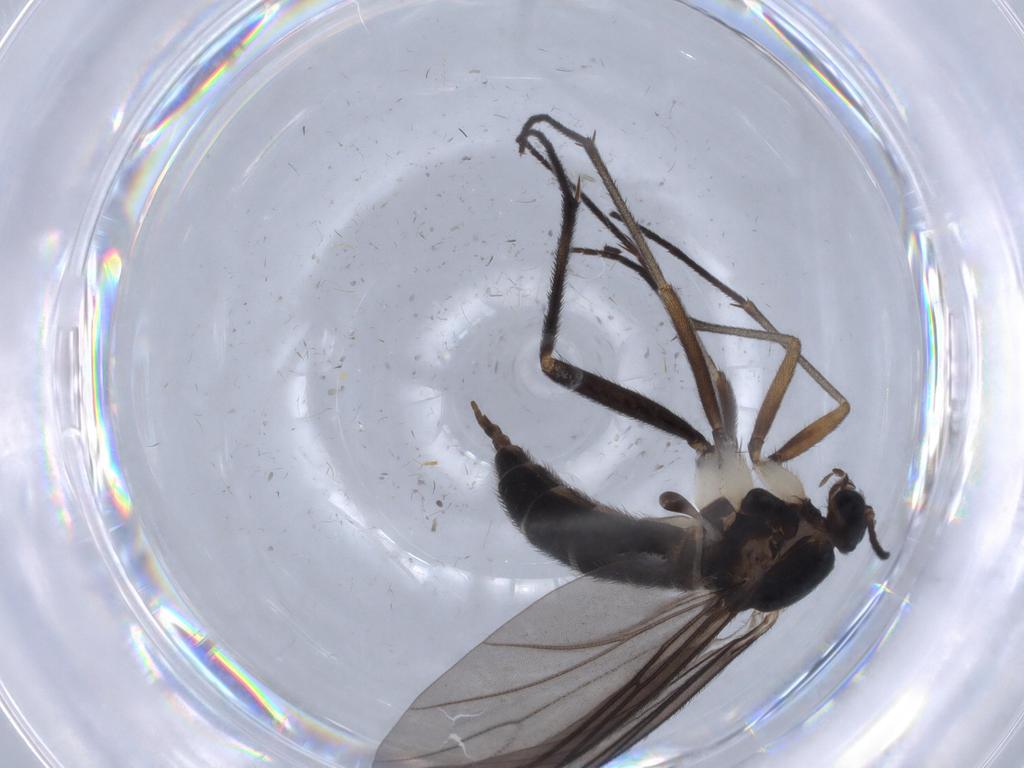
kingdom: Animalia
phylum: Arthropoda
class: Insecta
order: Diptera
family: Sciaridae
